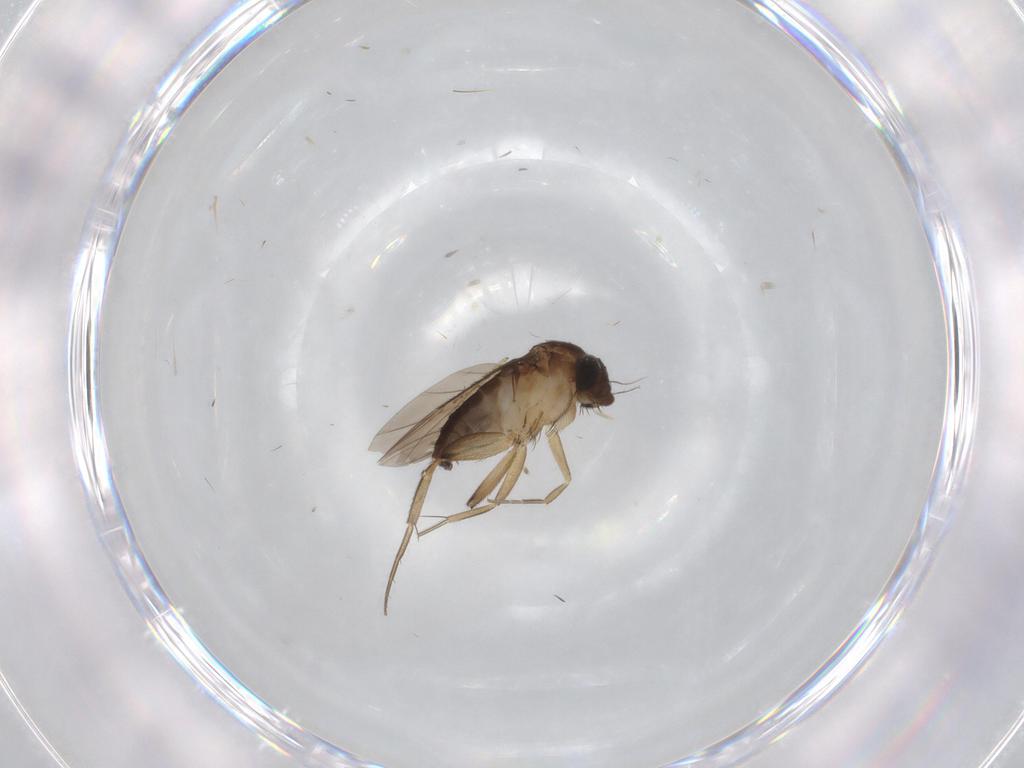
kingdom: Animalia
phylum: Arthropoda
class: Insecta
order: Diptera
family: Phoridae
